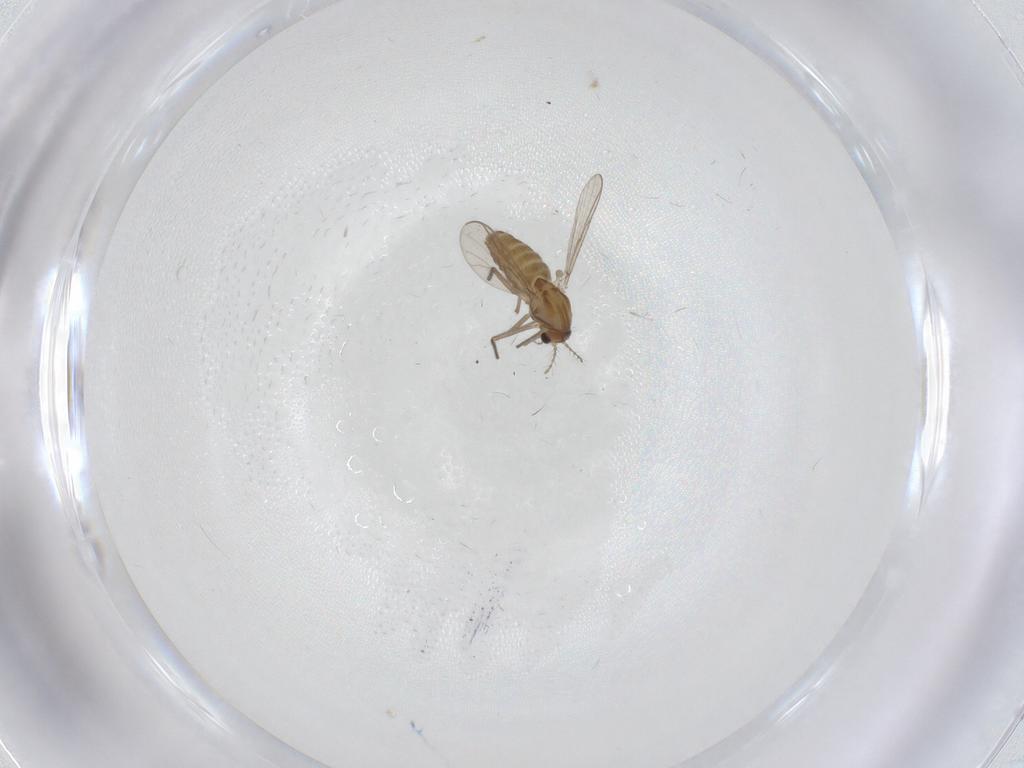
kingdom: Animalia
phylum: Arthropoda
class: Insecta
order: Diptera
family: Chironomidae
